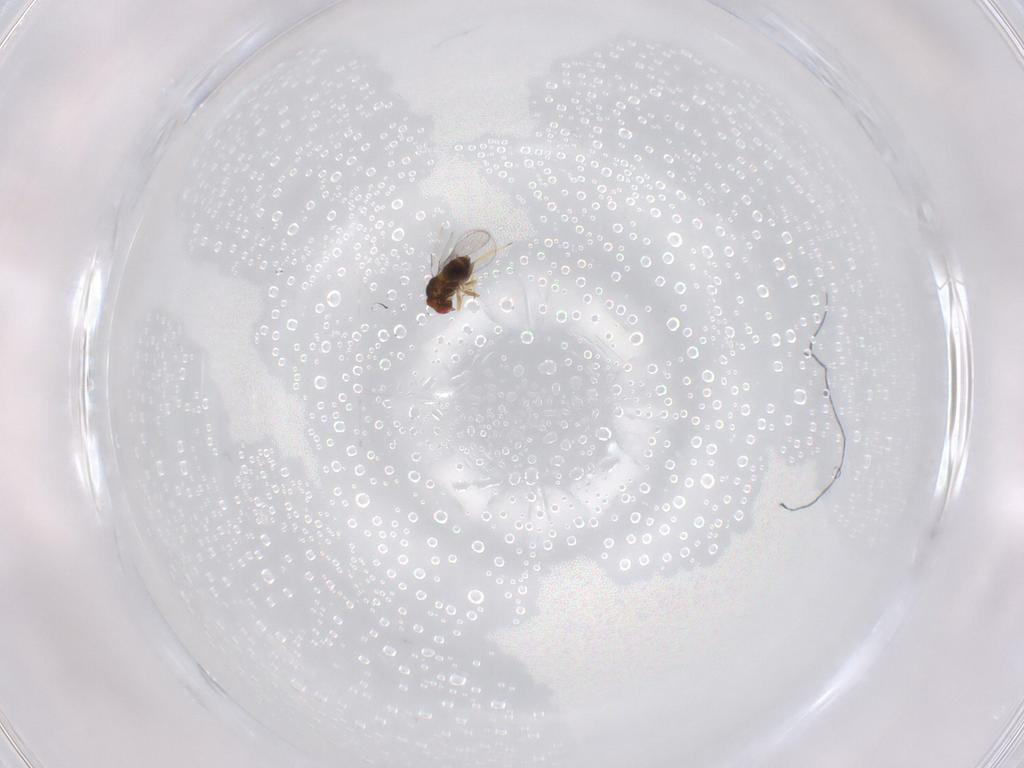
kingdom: Animalia
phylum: Arthropoda
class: Insecta
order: Hymenoptera
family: Trichogrammatidae
